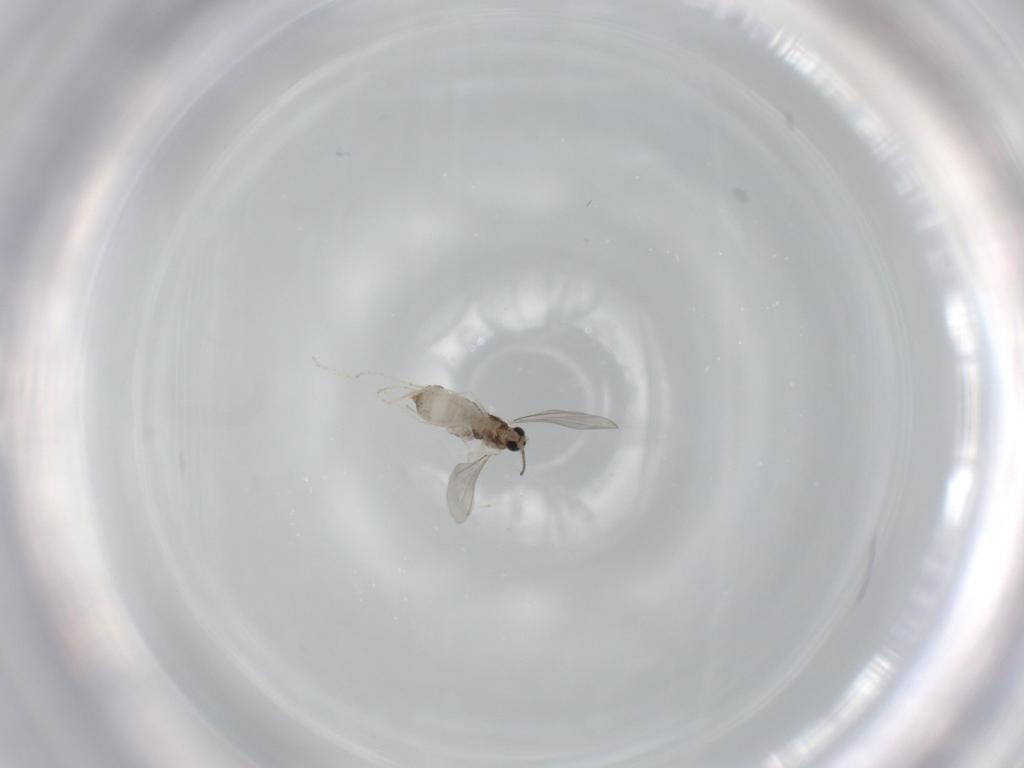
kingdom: Animalia
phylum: Arthropoda
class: Insecta
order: Diptera
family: Cecidomyiidae
